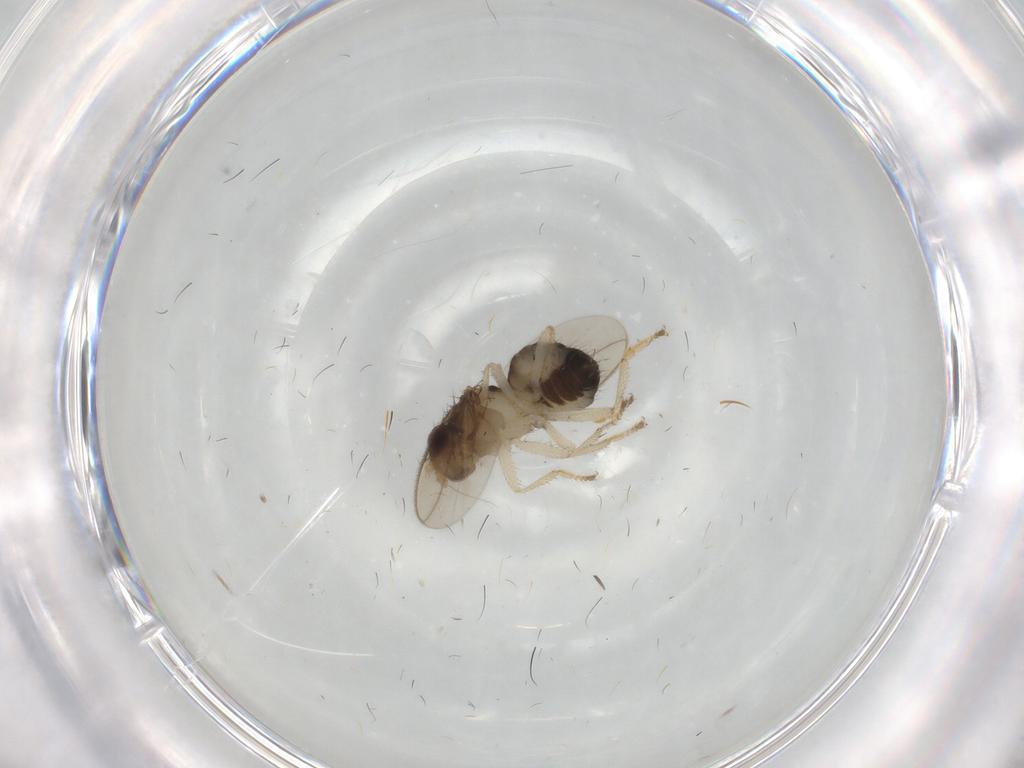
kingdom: Animalia
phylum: Arthropoda
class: Insecta
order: Diptera
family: Sphaeroceridae
